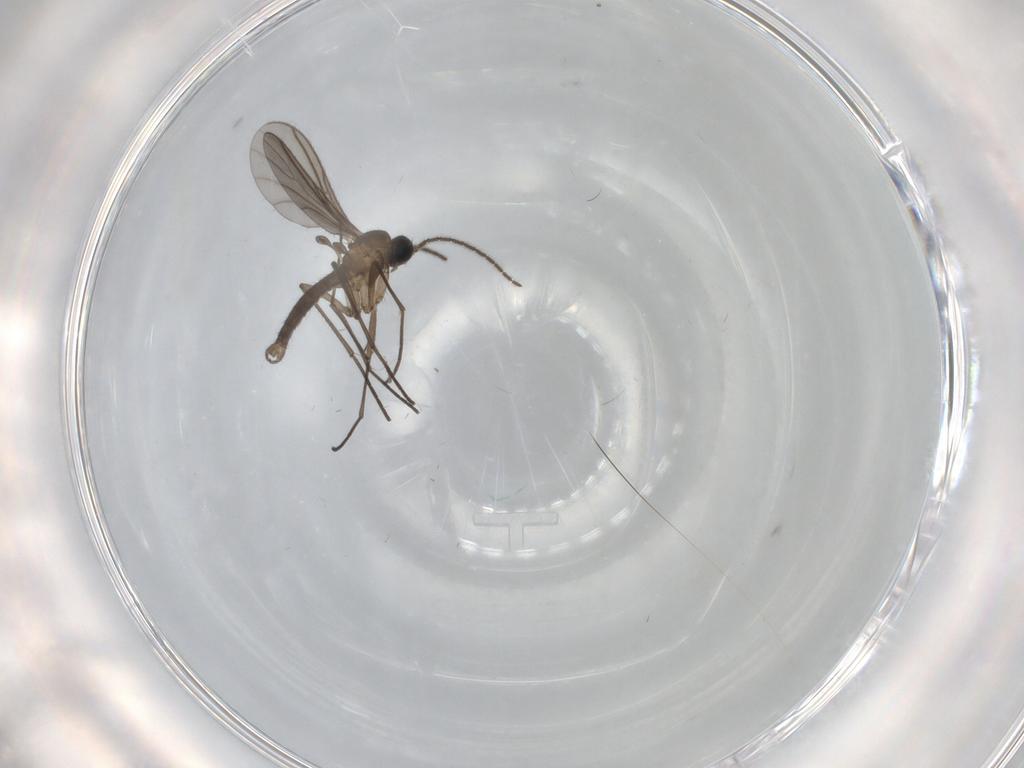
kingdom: Animalia
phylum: Arthropoda
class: Insecta
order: Diptera
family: Sciaridae
